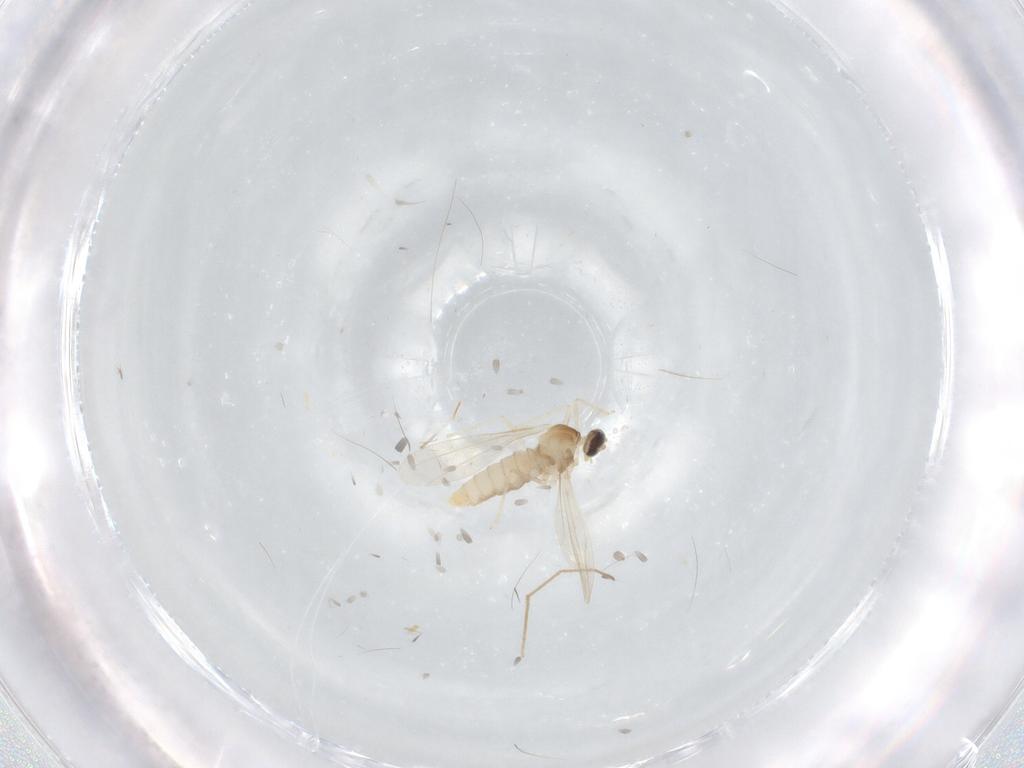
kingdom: Animalia
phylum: Arthropoda
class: Insecta
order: Diptera
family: Cecidomyiidae
